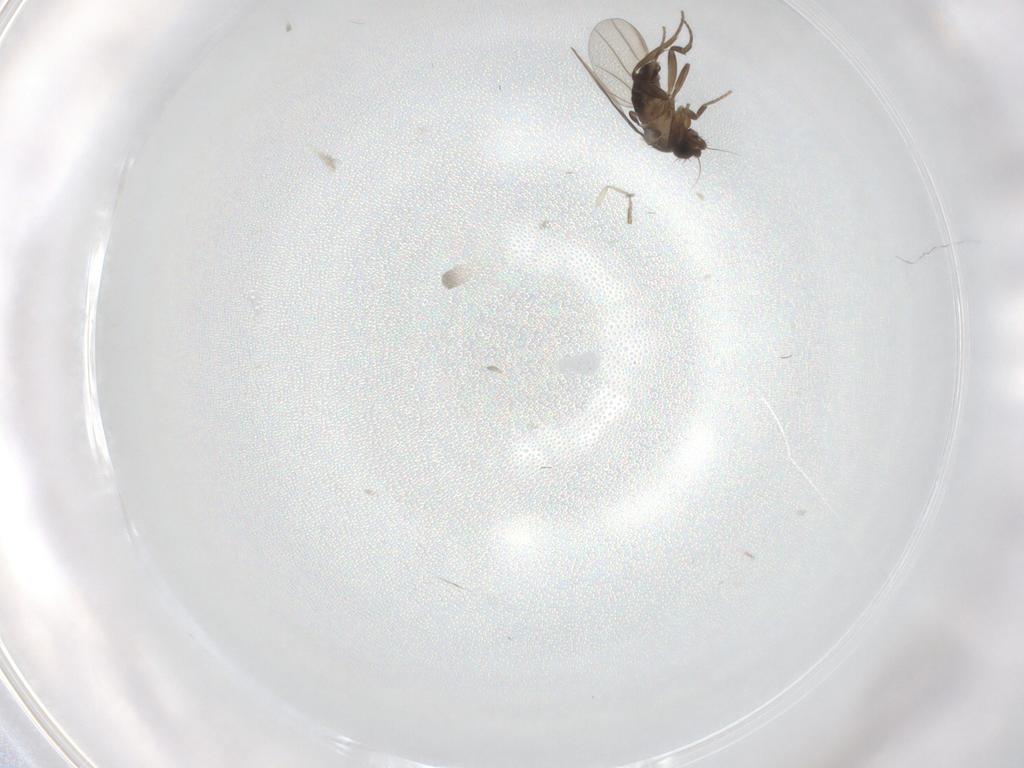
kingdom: Animalia
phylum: Arthropoda
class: Insecta
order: Diptera
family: Phoridae
